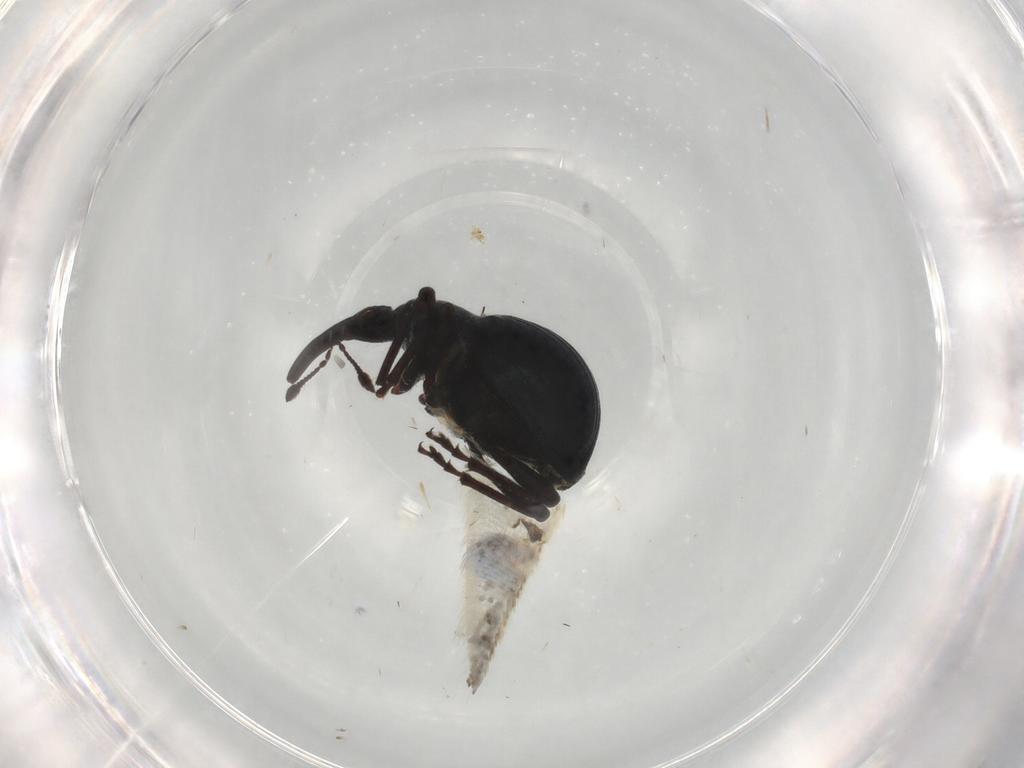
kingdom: Animalia
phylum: Arthropoda
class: Insecta
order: Coleoptera
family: Apionidae
